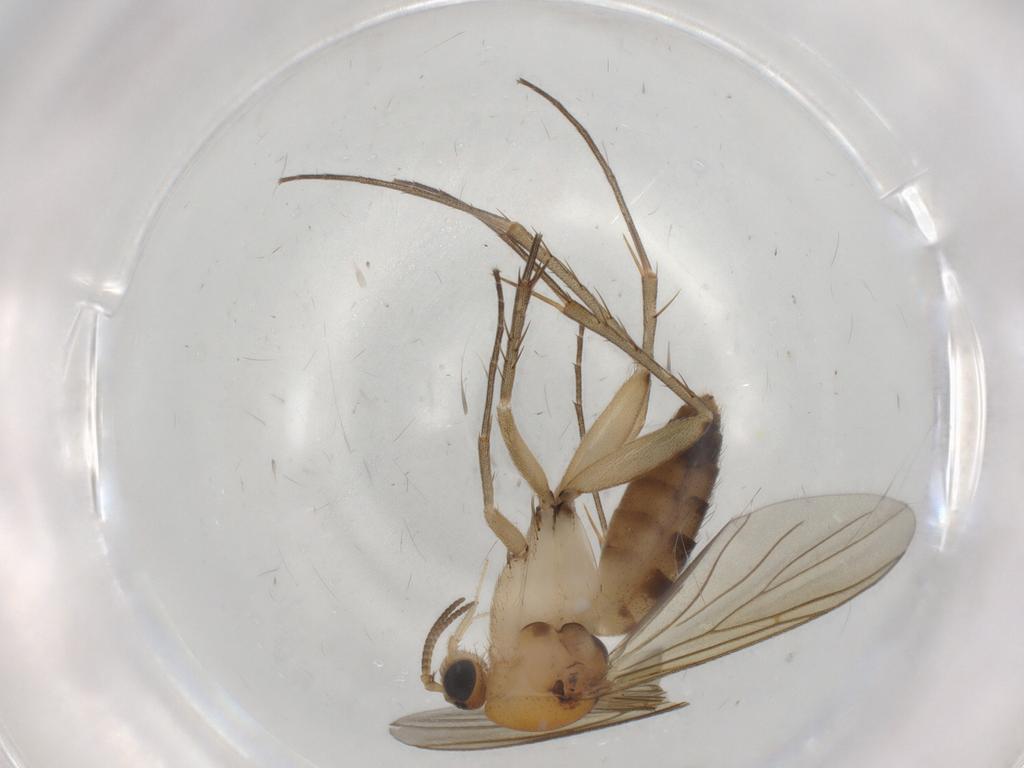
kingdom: Animalia
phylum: Arthropoda
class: Insecta
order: Diptera
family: Mycetophilidae
